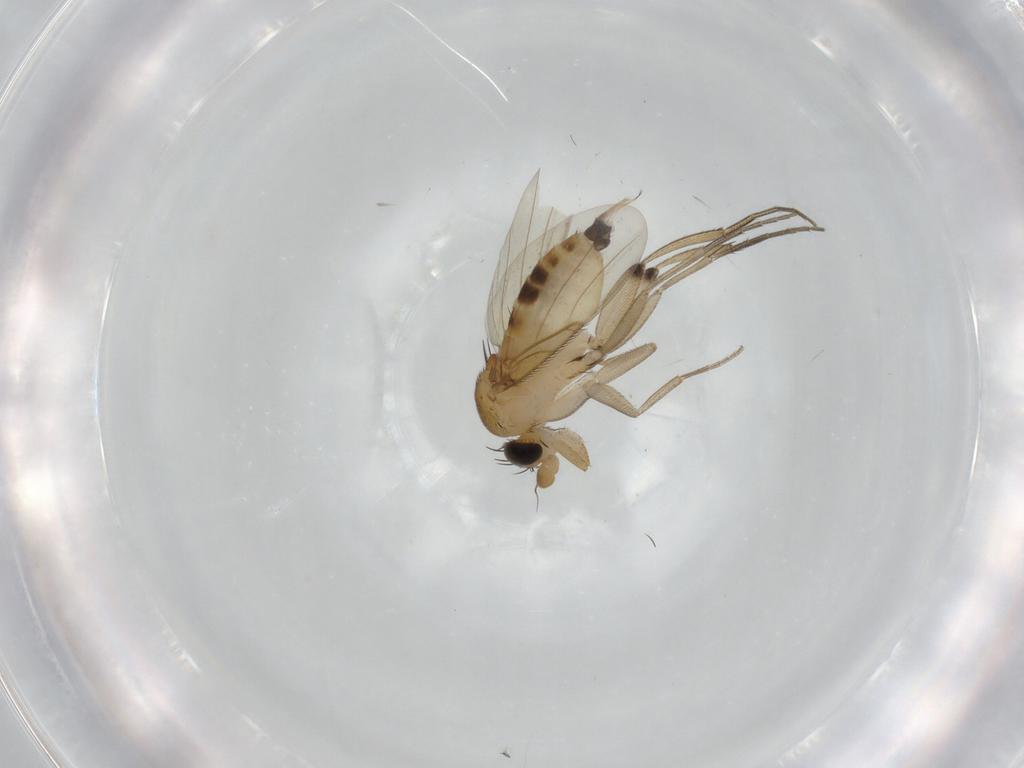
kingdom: Animalia
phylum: Arthropoda
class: Insecta
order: Diptera
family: Phoridae
